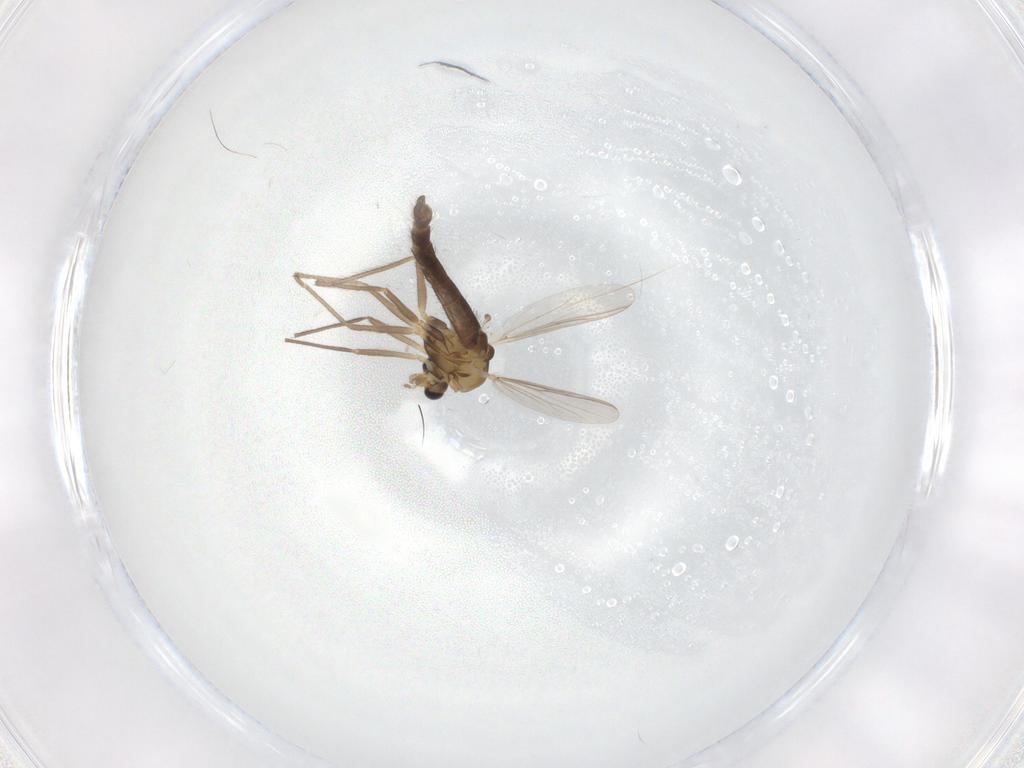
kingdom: Animalia
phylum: Arthropoda
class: Insecta
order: Diptera
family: Chironomidae
